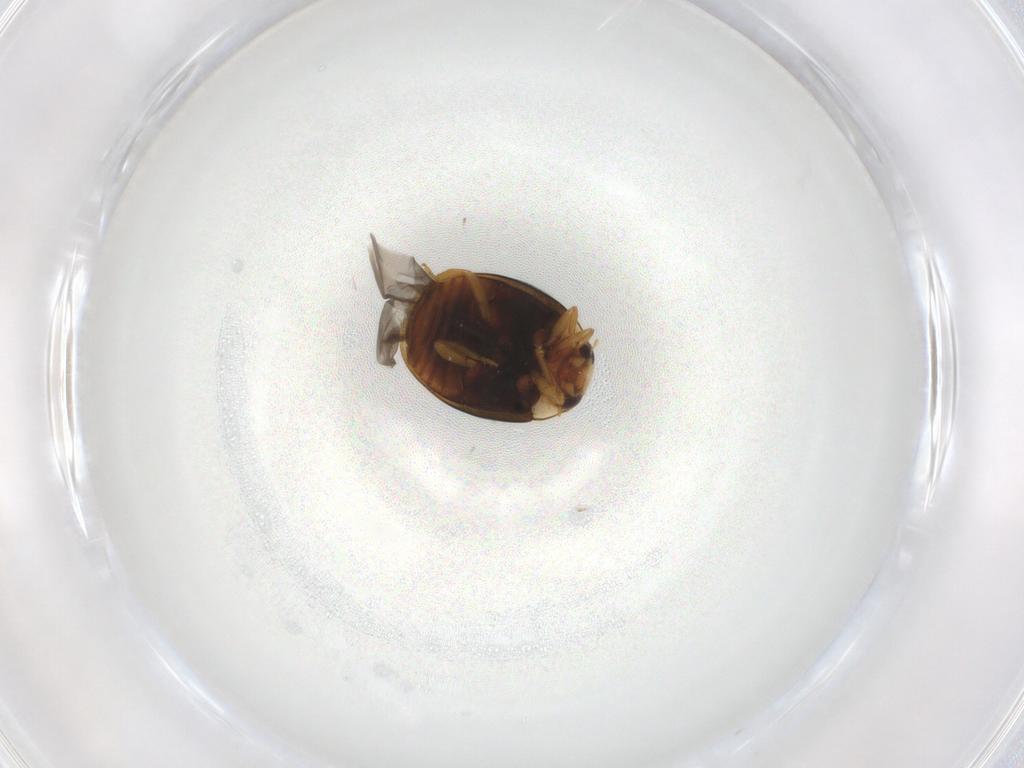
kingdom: Animalia
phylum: Arthropoda
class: Insecta
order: Coleoptera
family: Coccinellidae
